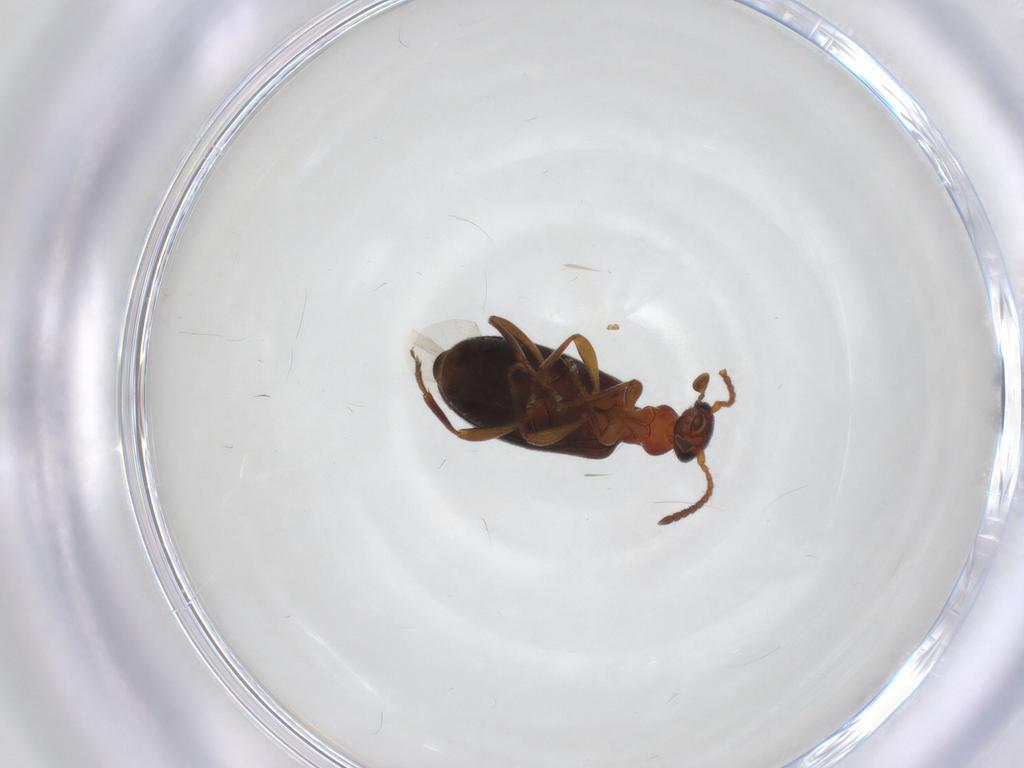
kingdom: Animalia
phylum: Arthropoda
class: Insecta
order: Coleoptera
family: Anthicidae
